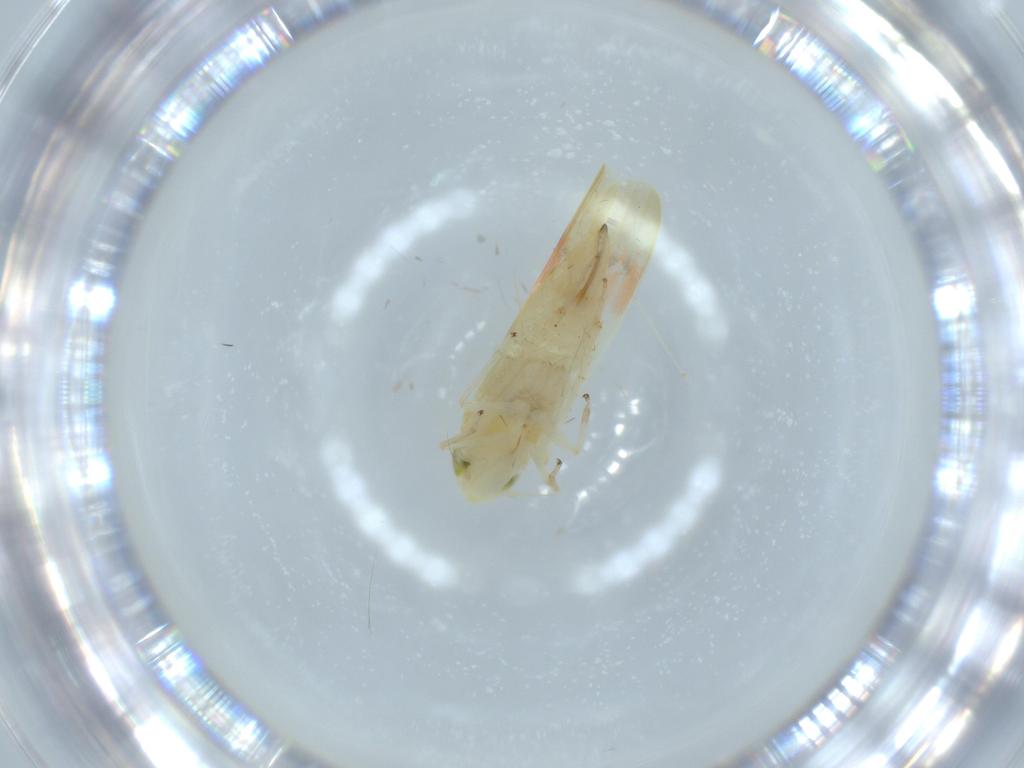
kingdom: Animalia
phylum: Arthropoda
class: Insecta
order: Hemiptera
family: Cicadellidae
